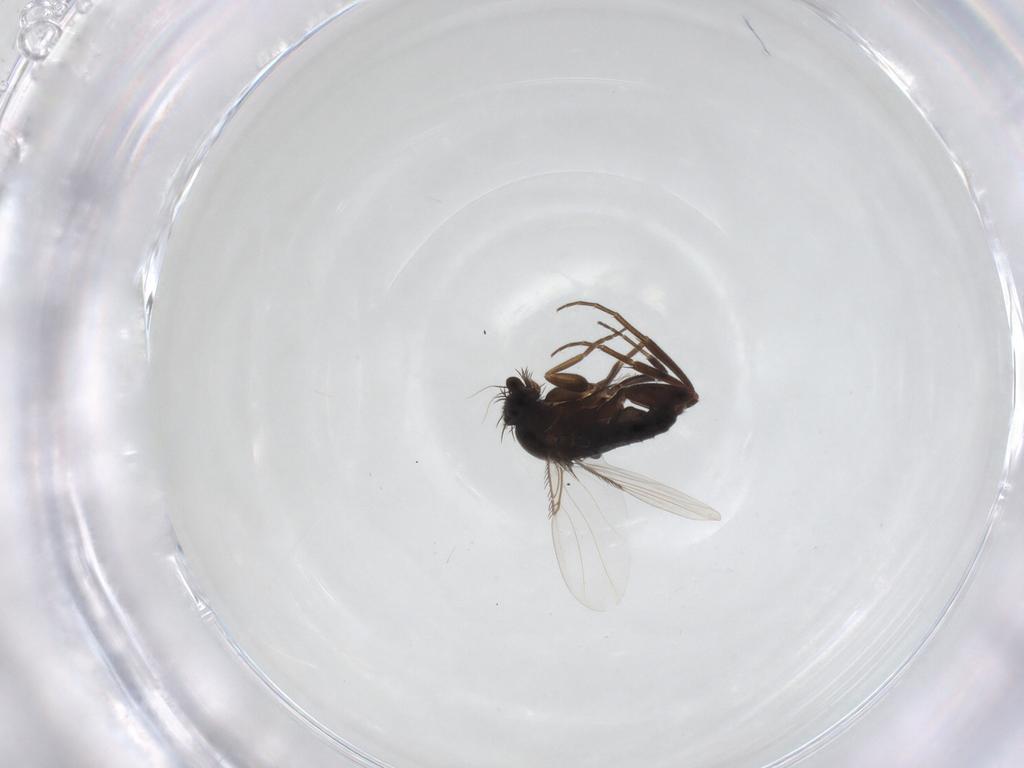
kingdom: Animalia
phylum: Arthropoda
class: Insecta
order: Diptera
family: Phoridae
